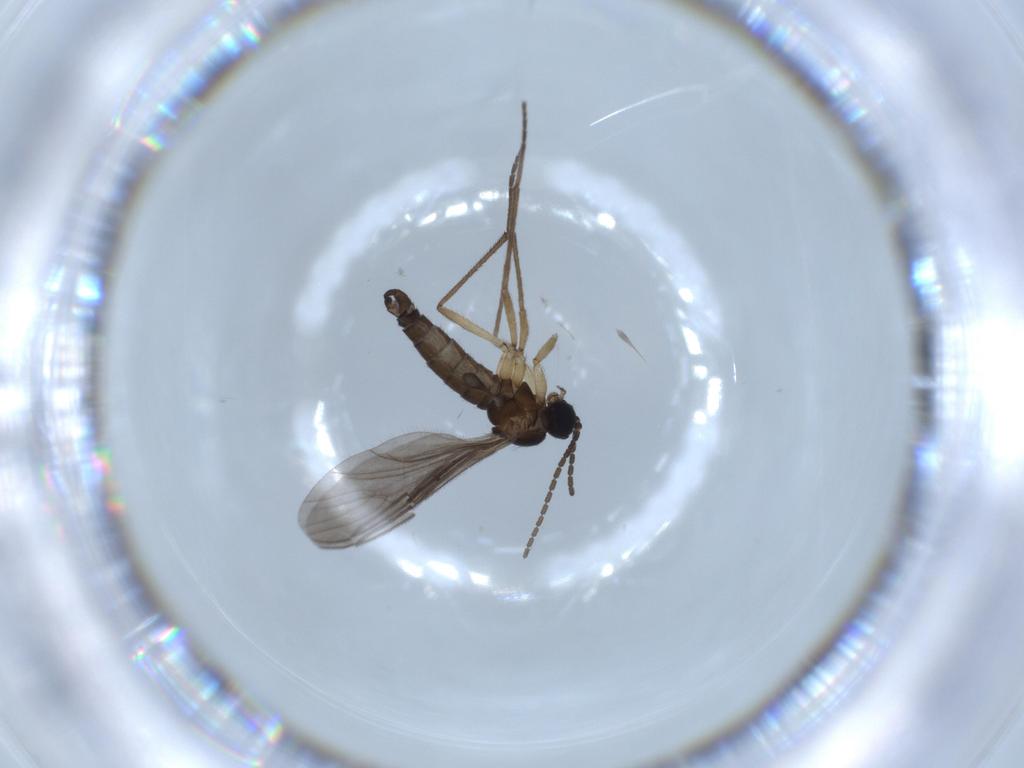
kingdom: Animalia
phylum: Arthropoda
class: Insecta
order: Diptera
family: Sciaridae
